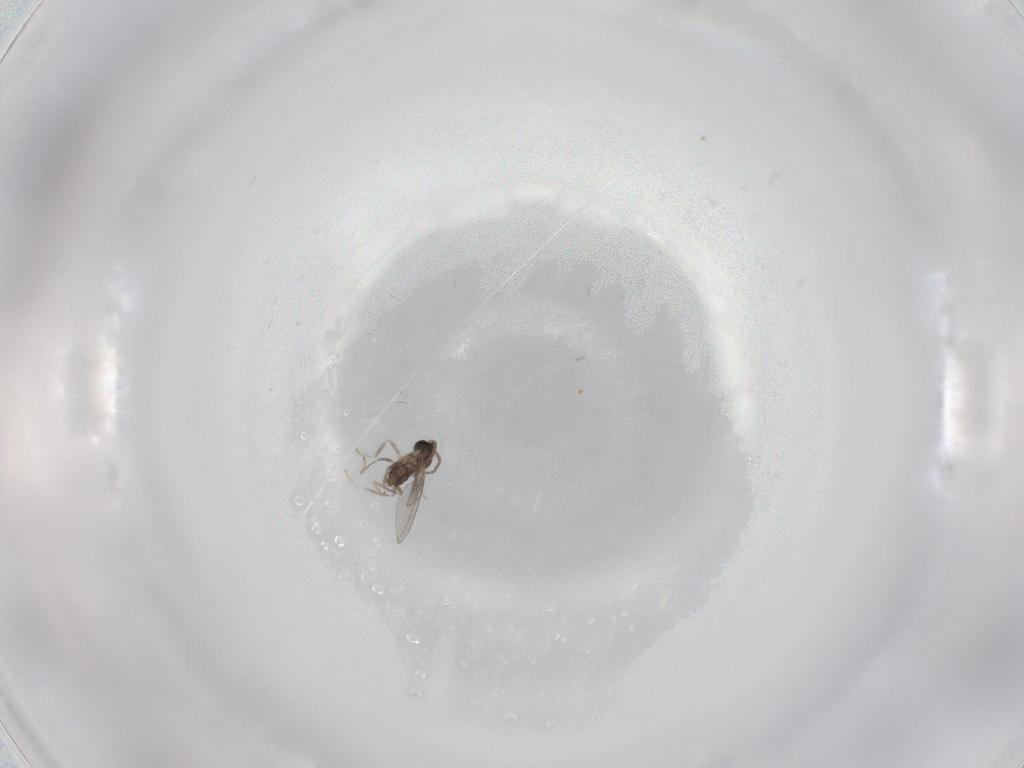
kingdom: Animalia
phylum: Arthropoda
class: Insecta
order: Diptera
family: Cecidomyiidae
